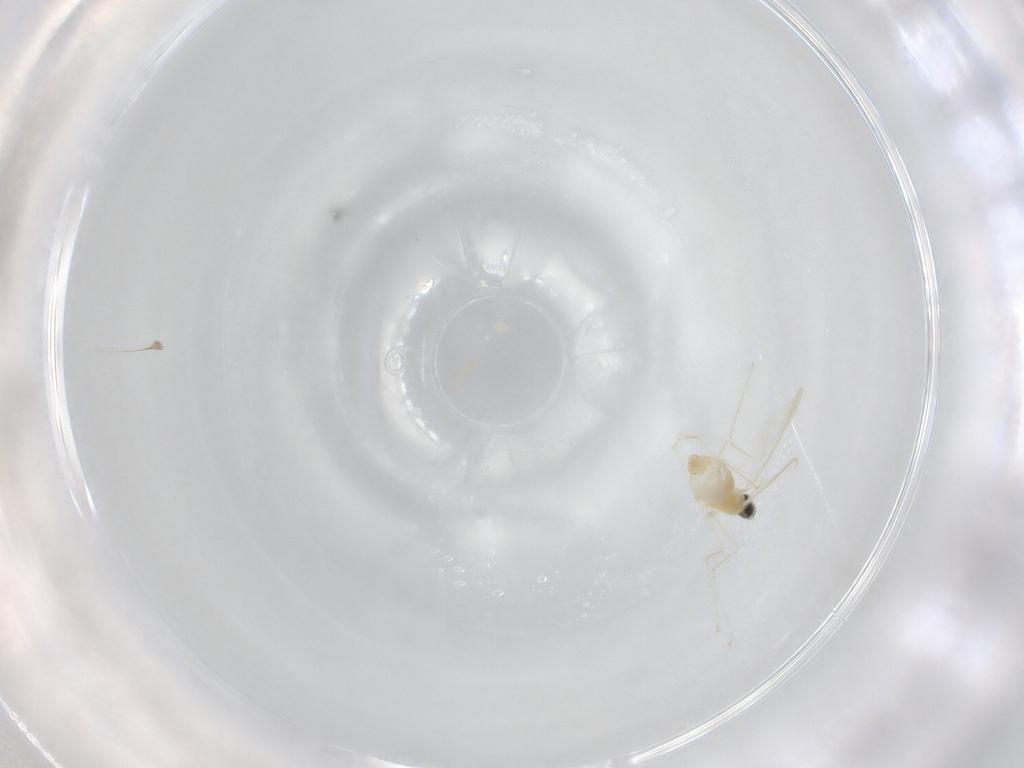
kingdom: Animalia
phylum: Arthropoda
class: Insecta
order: Diptera
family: Cecidomyiidae
